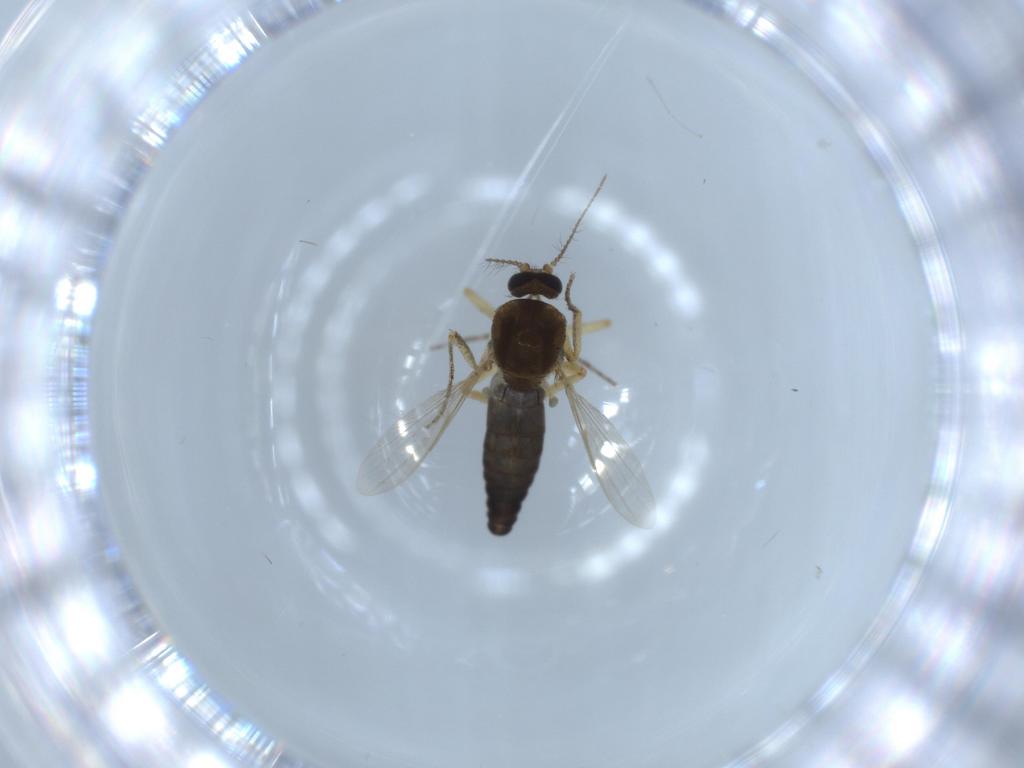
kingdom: Animalia
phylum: Arthropoda
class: Insecta
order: Diptera
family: Ceratopogonidae
